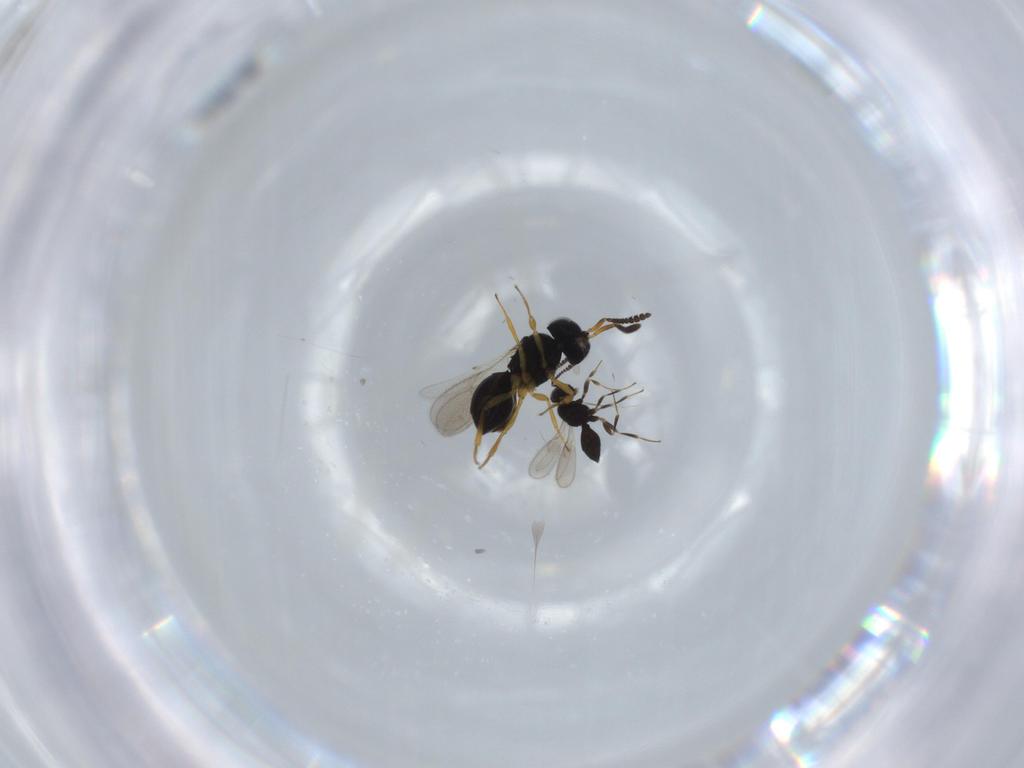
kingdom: Animalia
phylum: Arthropoda
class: Insecta
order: Hymenoptera
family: Scelionidae
